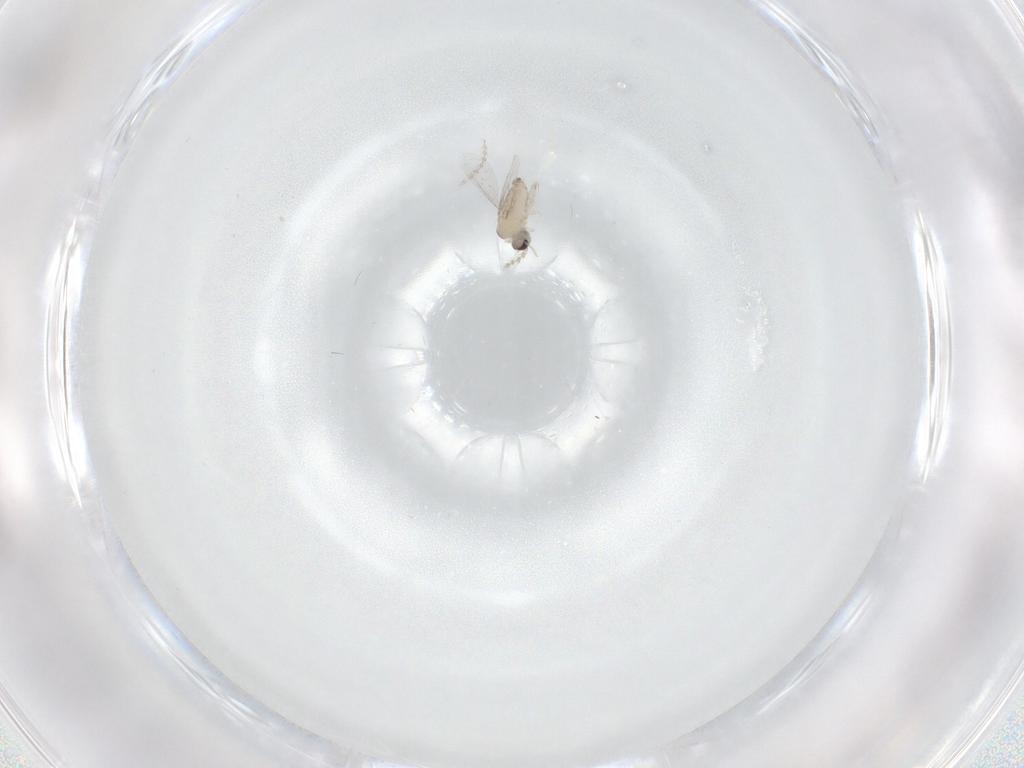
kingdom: Animalia
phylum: Arthropoda
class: Insecta
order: Diptera
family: Cecidomyiidae
